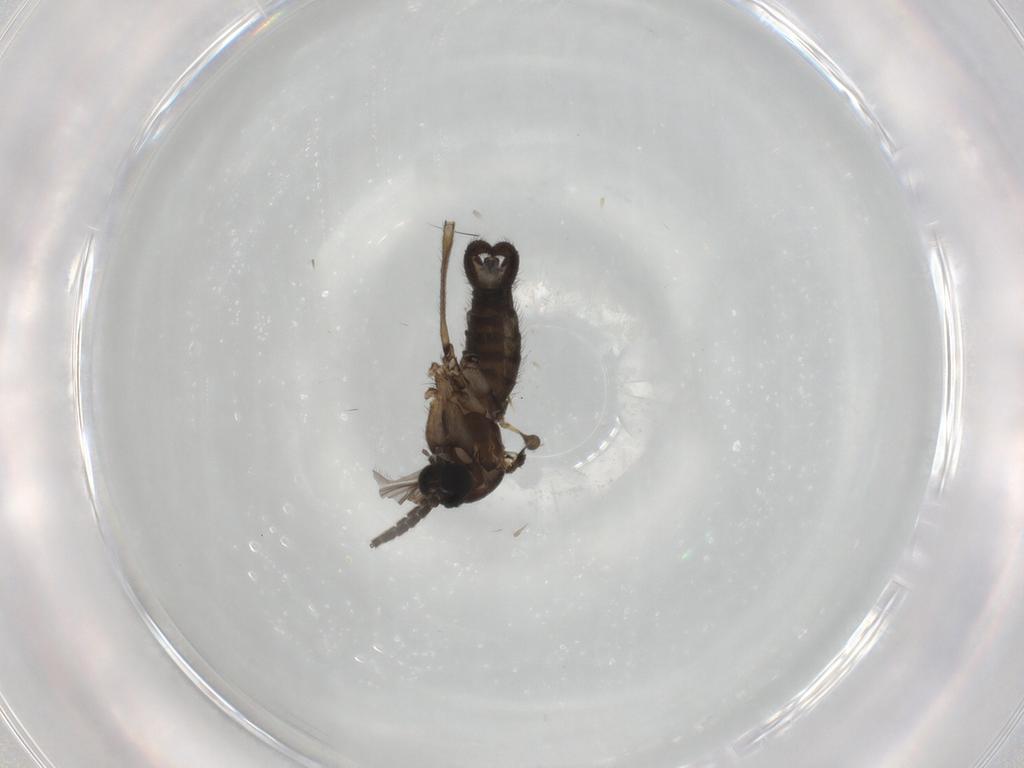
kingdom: Animalia
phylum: Arthropoda
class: Insecta
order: Diptera
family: Sciaridae
